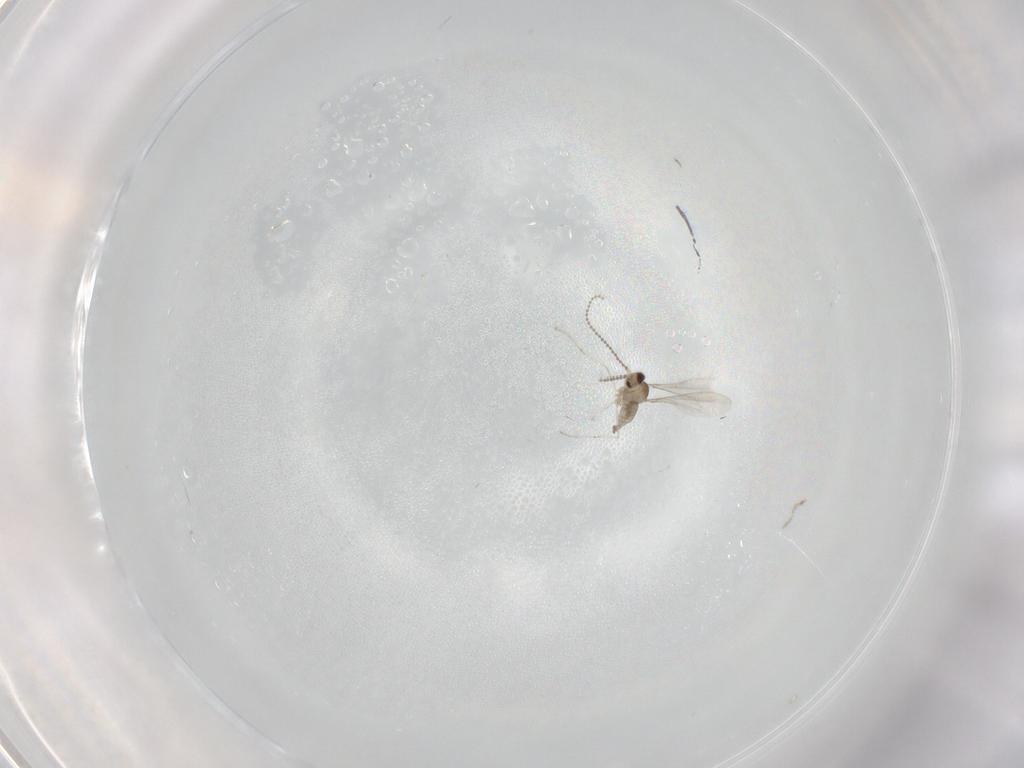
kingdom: Animalia
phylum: Arthropoda
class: Insecta
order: Diptera
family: Cecidomyiidae
